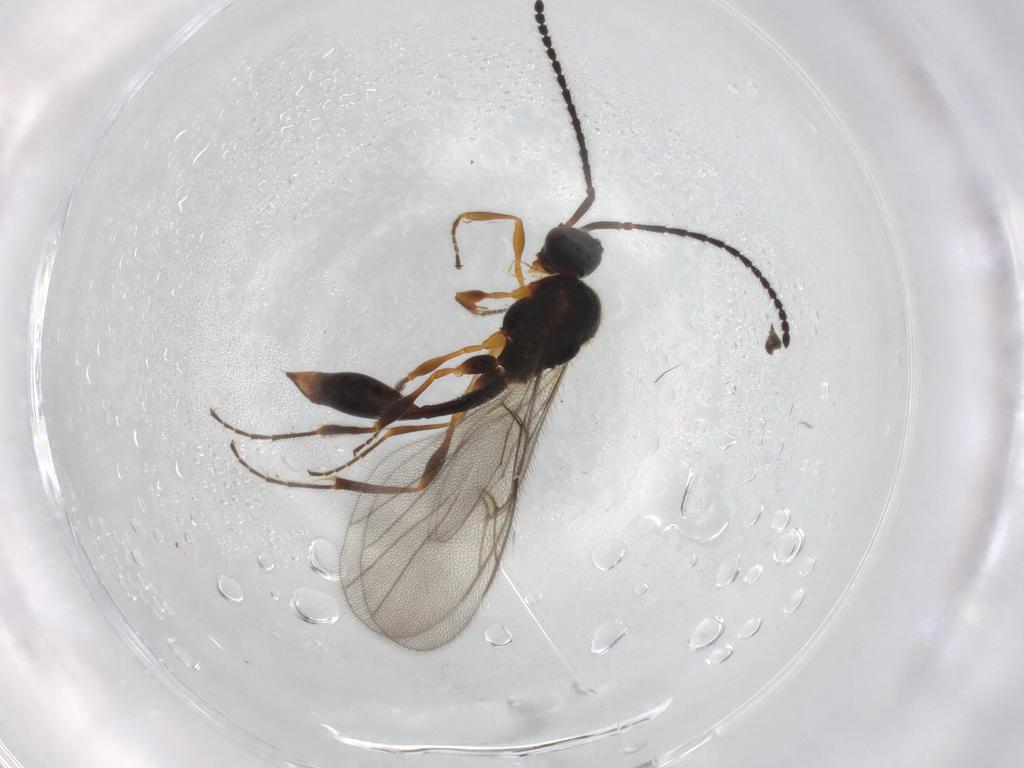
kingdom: Animalia
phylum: Arthropoda
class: Insecta
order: Hymenoptera
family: Diapriidae
